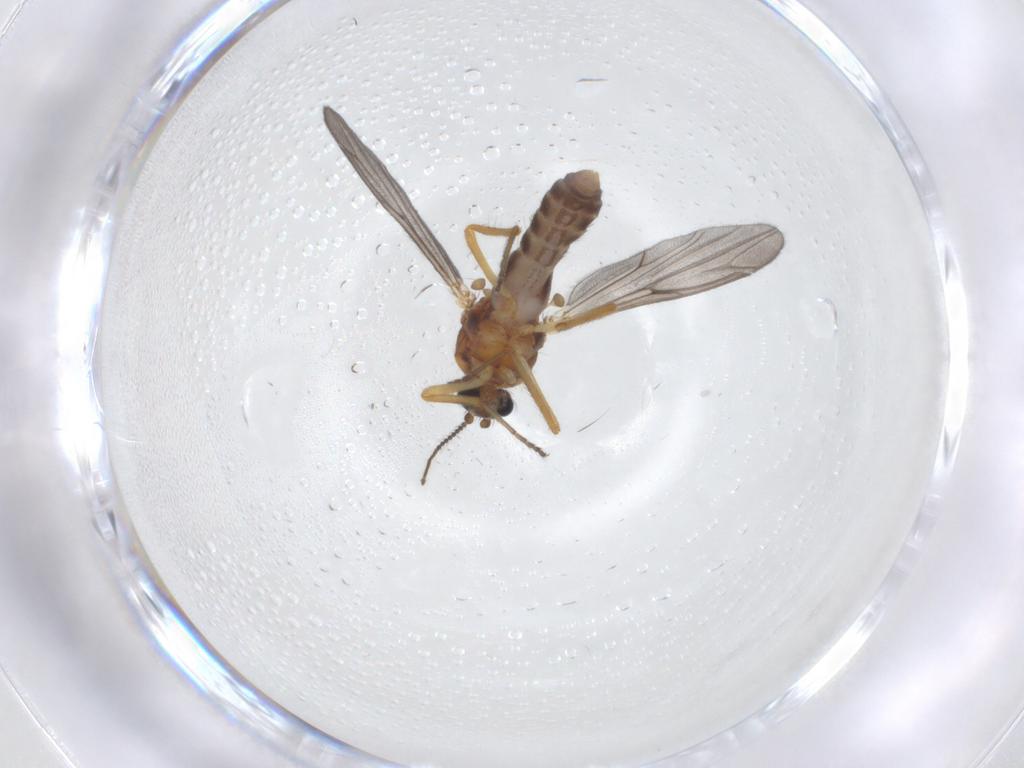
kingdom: Animalia
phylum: Arthropoda
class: Insecta
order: Diptera
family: Ceratopogonidae
